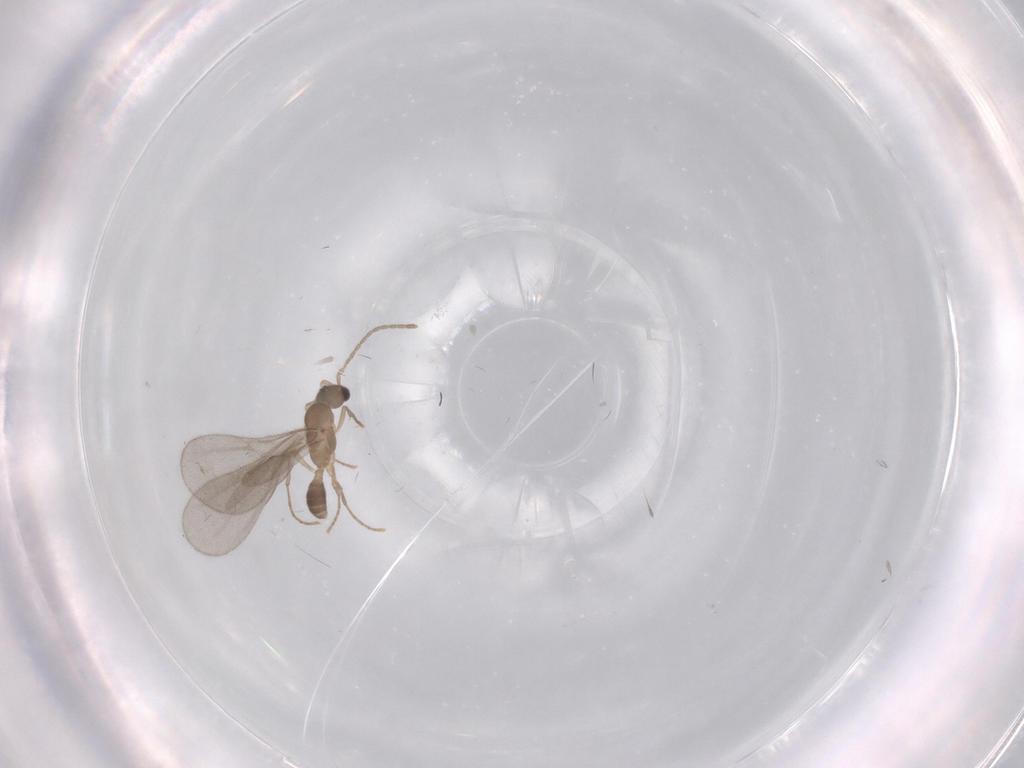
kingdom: Animalia
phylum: Arthropoda
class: Insecta
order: Hymenoptera
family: Formicidae
